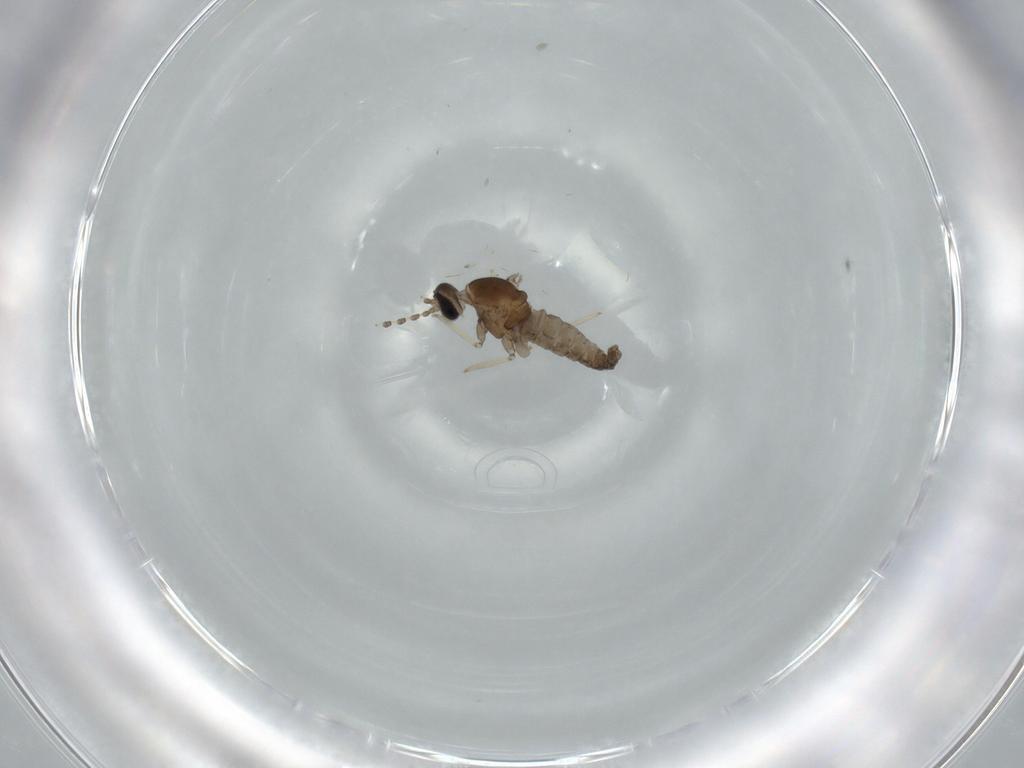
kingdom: Animalia
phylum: Arthropoda
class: Insecta
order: Diptera
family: Cecidomyiidae
